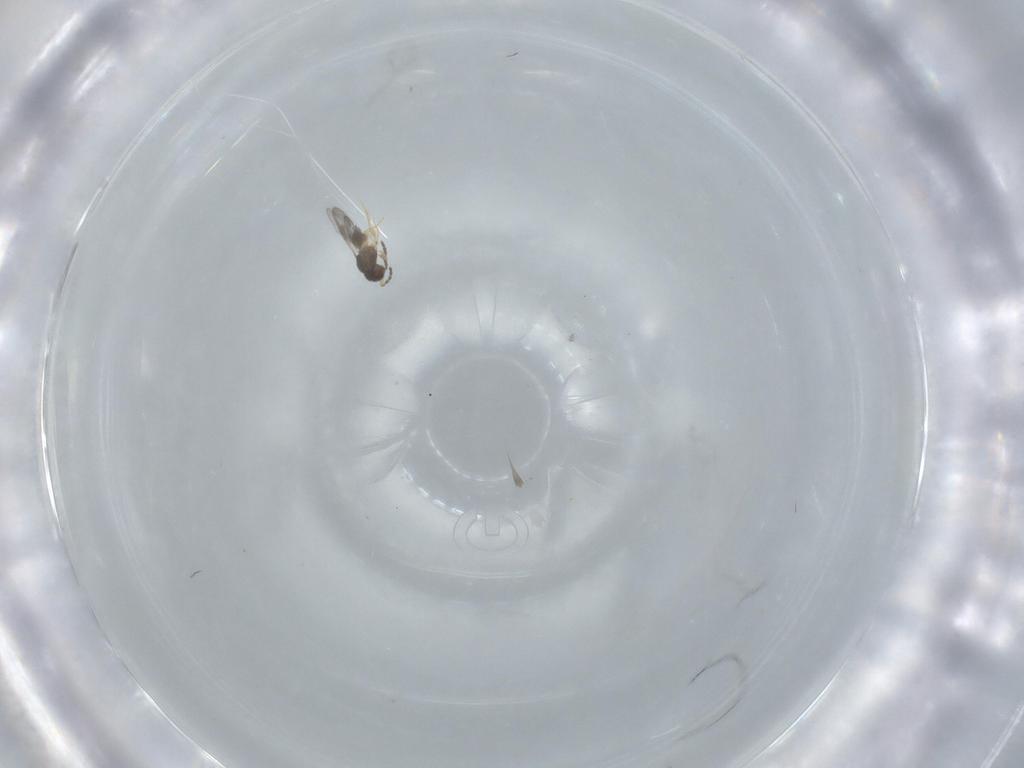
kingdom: Animalia
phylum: Arthropoda
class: Insecta
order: Hymenoptera
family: Ceraphronidae
